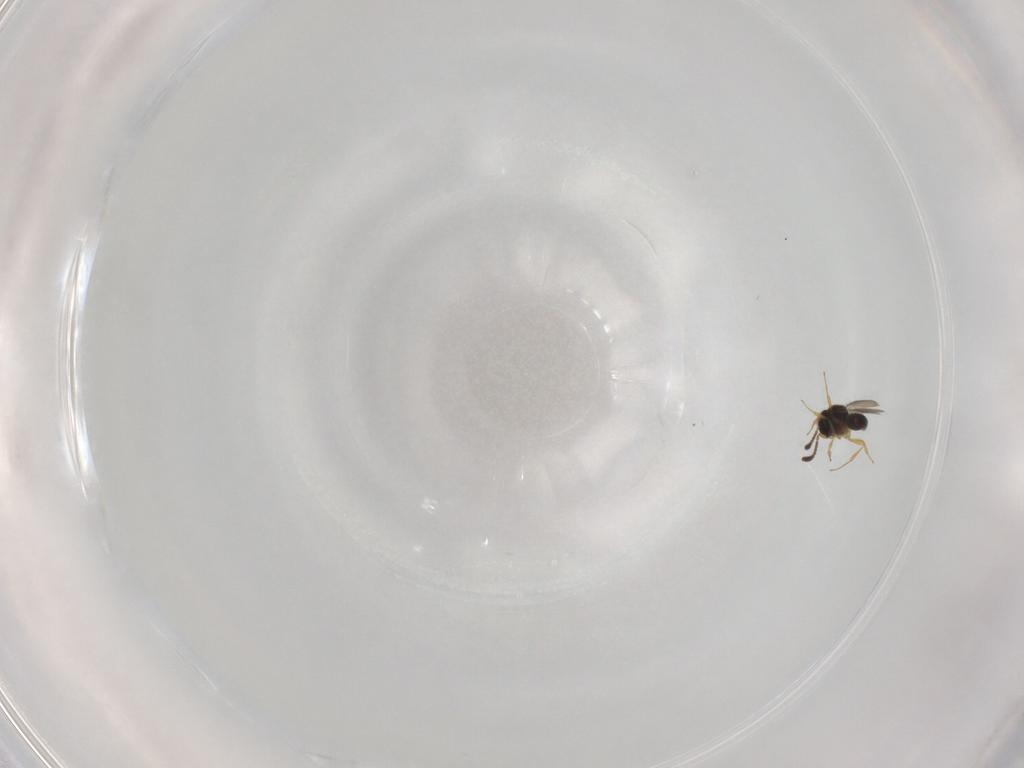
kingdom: Animalia
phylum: Arthropoda
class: Insecta
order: Hymenoptera
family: Scelionidae
